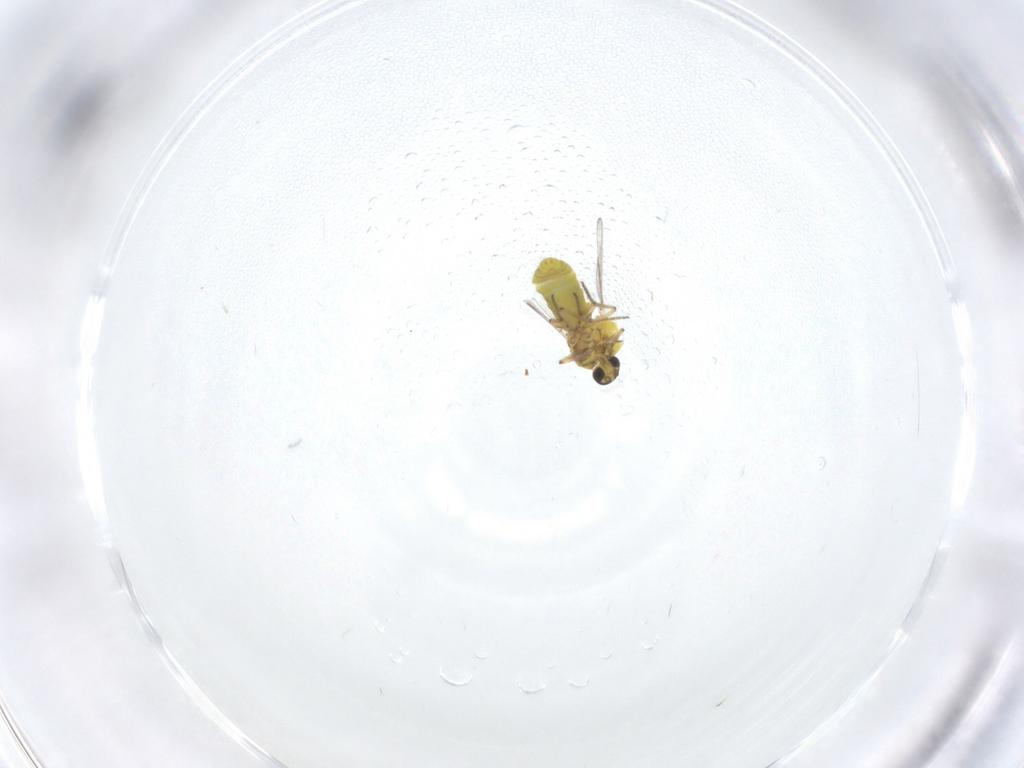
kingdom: Animalia
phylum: Arthropoda
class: Insecta
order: Diptera
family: Ceratopogonidae
